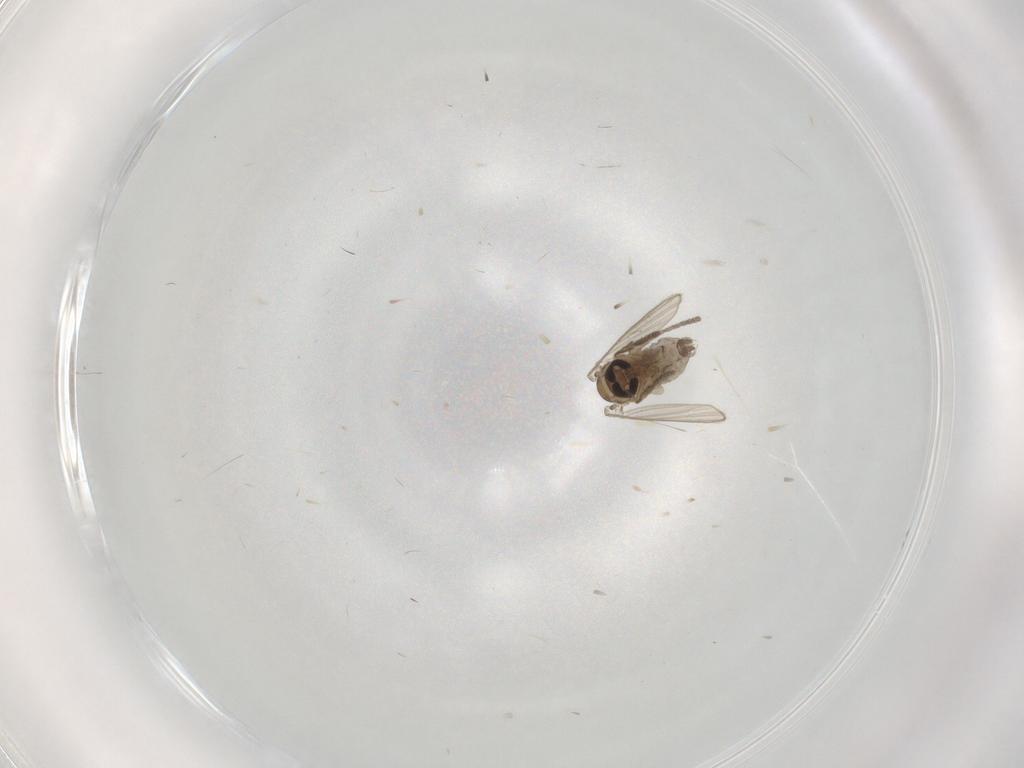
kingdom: Animalia
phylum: Arthropoda
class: Insecta
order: Diptera
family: Psychodidae
